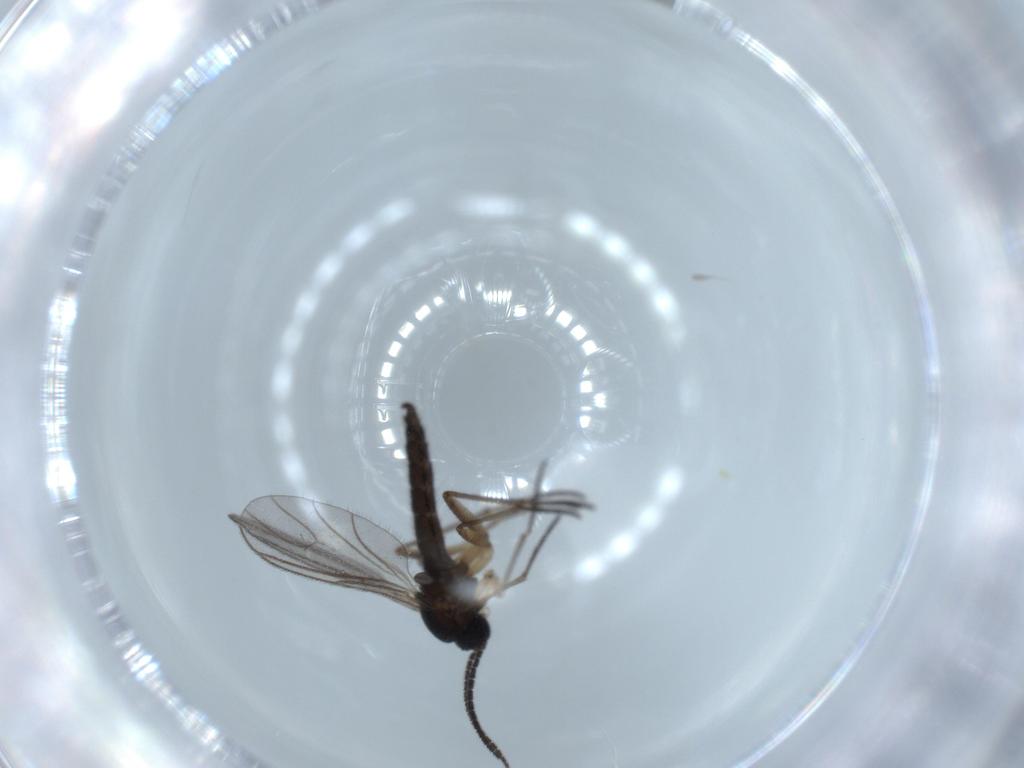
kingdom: Animalia
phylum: Arthropoda
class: Insecta
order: Diptera
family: Sciaridae
